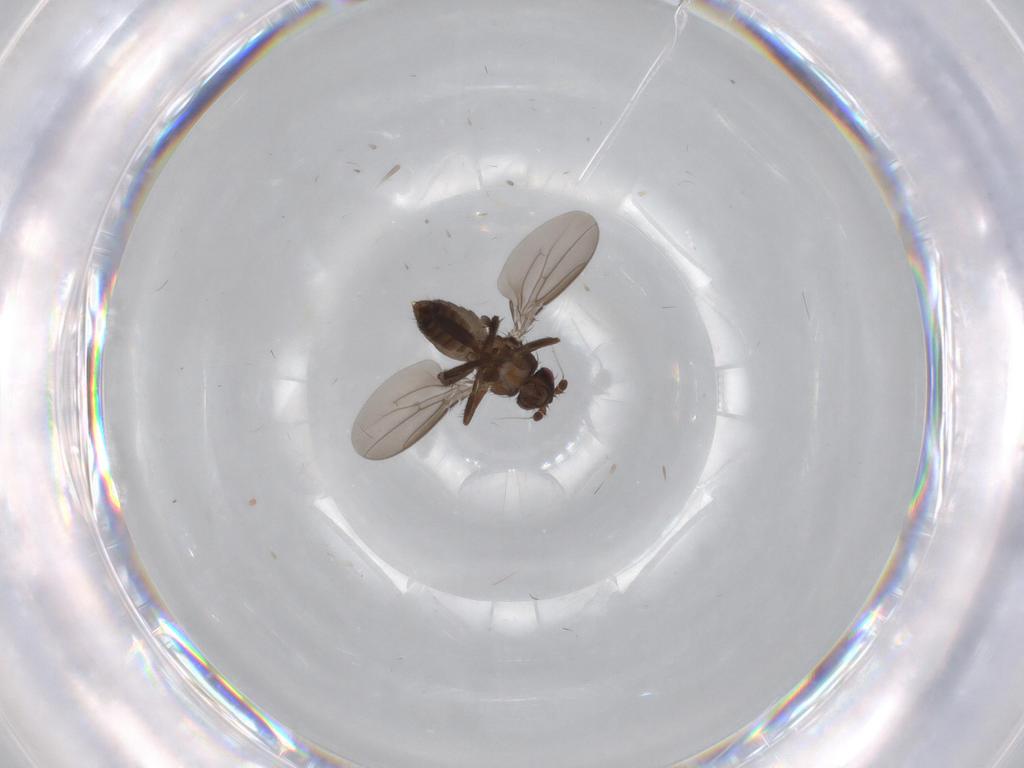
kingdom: Animalia
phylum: Arthropoda
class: Insecta
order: Diptera
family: Sphaeroceridae
